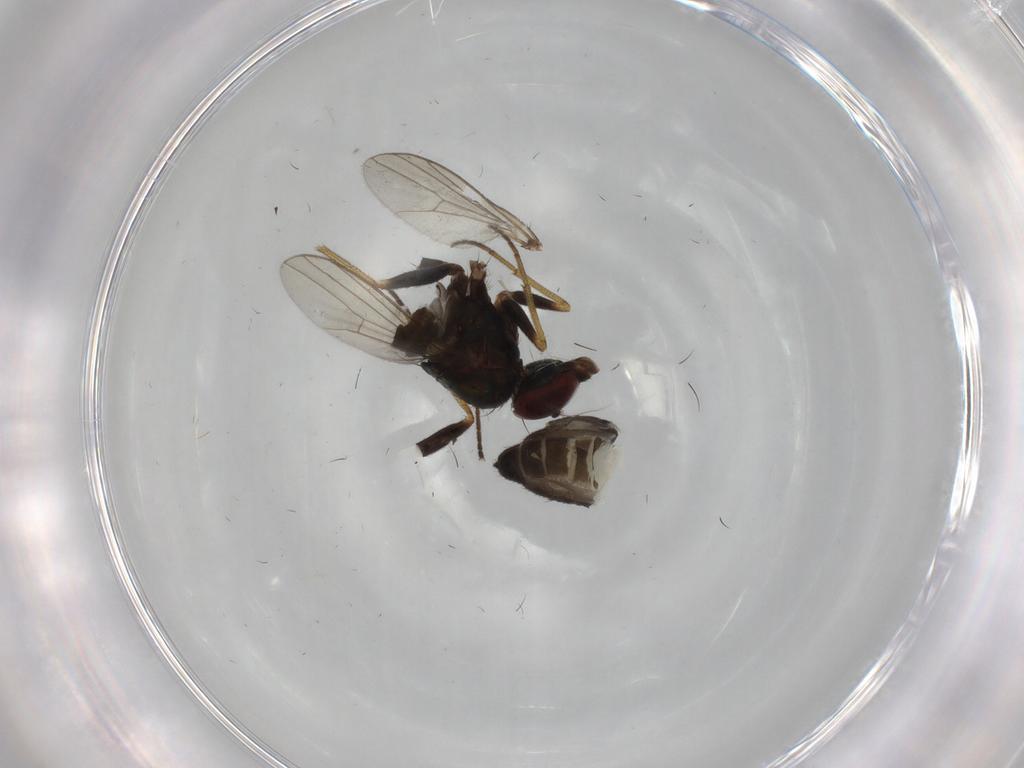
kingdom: Animalia
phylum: Arthropoda
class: Insecta
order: Diptera
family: Dolichopodidae
